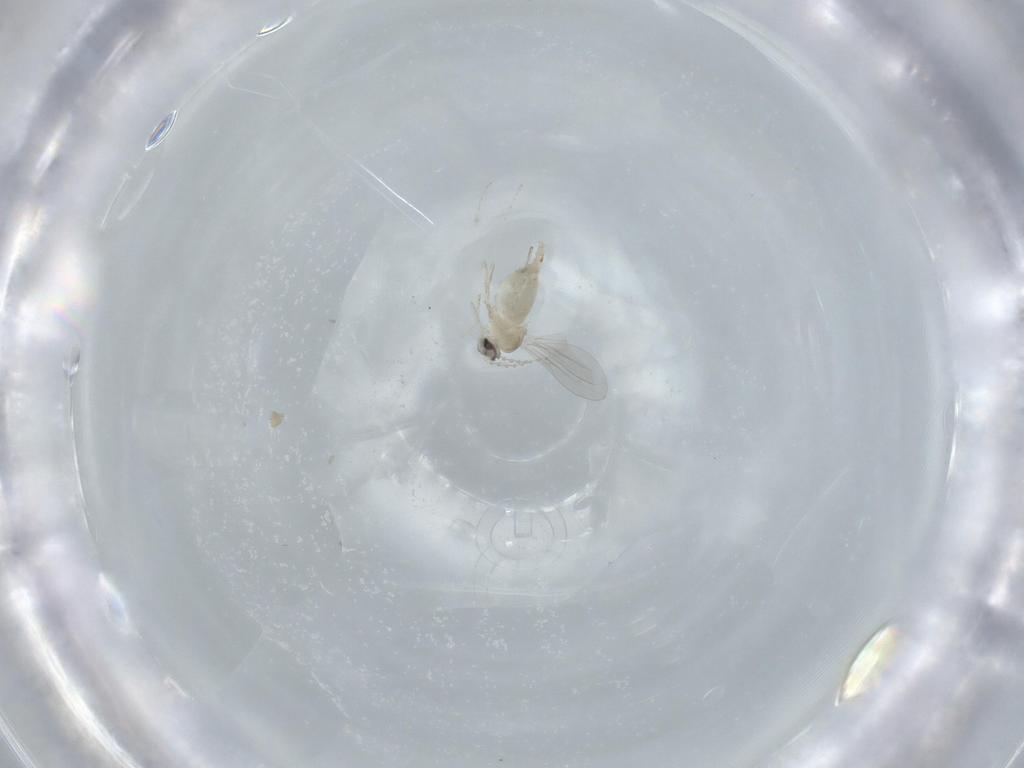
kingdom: Animalia
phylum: Arthropoda
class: Insecta
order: Diptera
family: Cecidomyiidae
